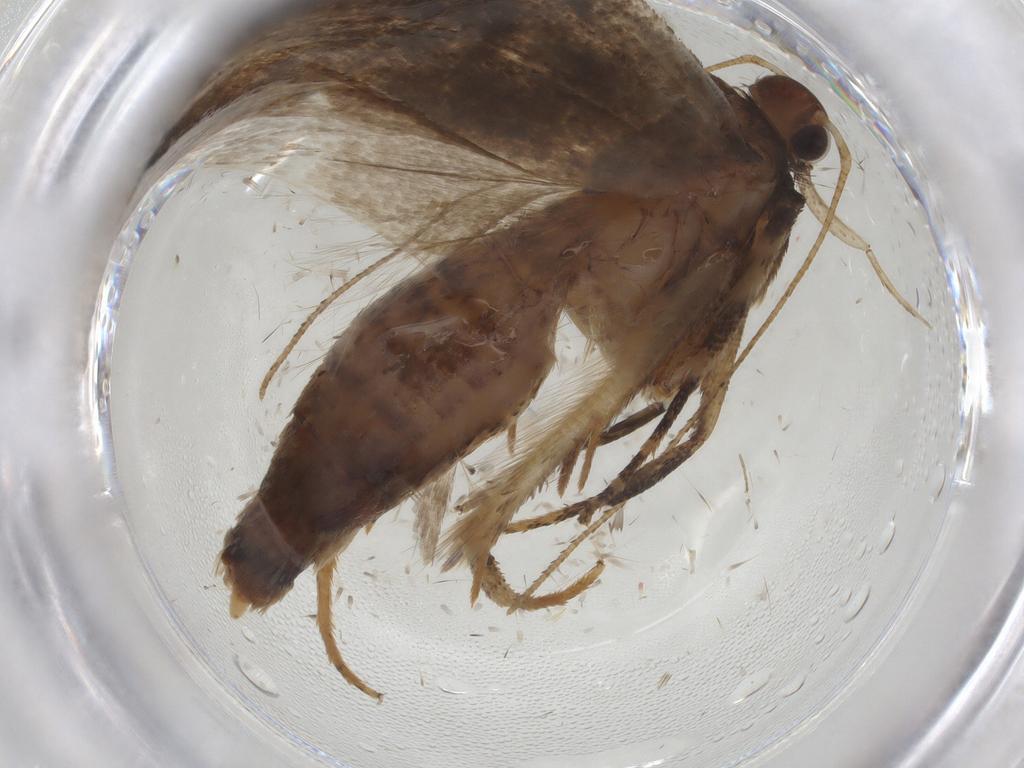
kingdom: Animalia
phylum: Arthropoda
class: Insecta
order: Lepidoptera
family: Gelechiidae
